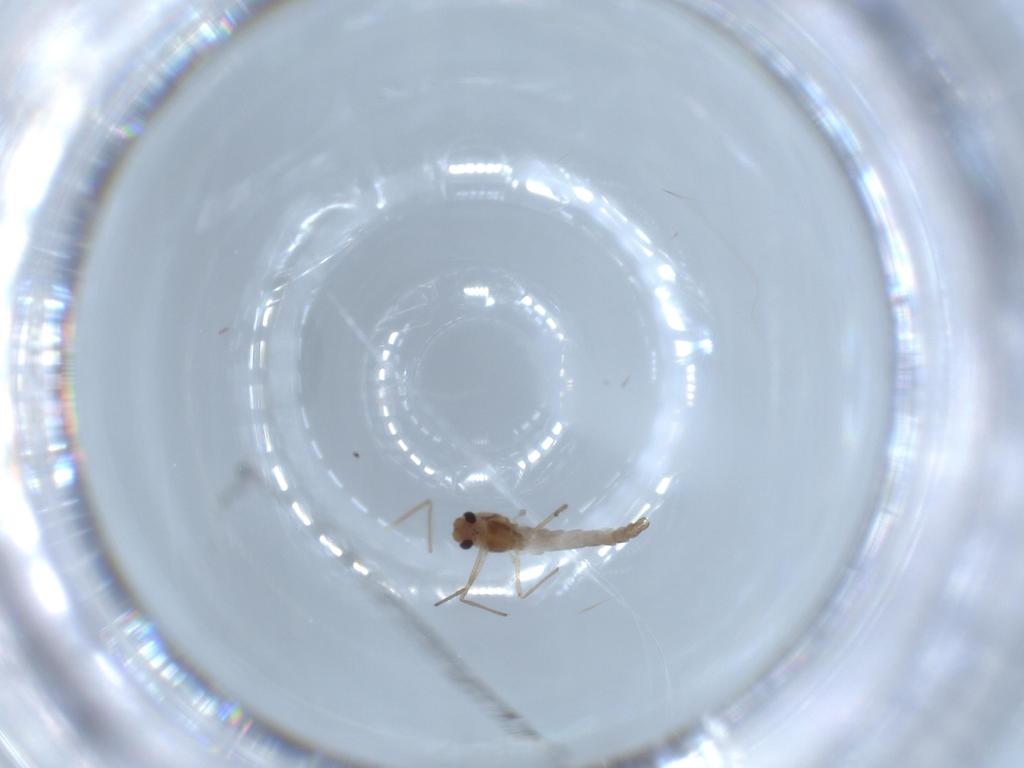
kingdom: Animalia
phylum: Arthropoda
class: Insecta
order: Diptera
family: Chironomidae
